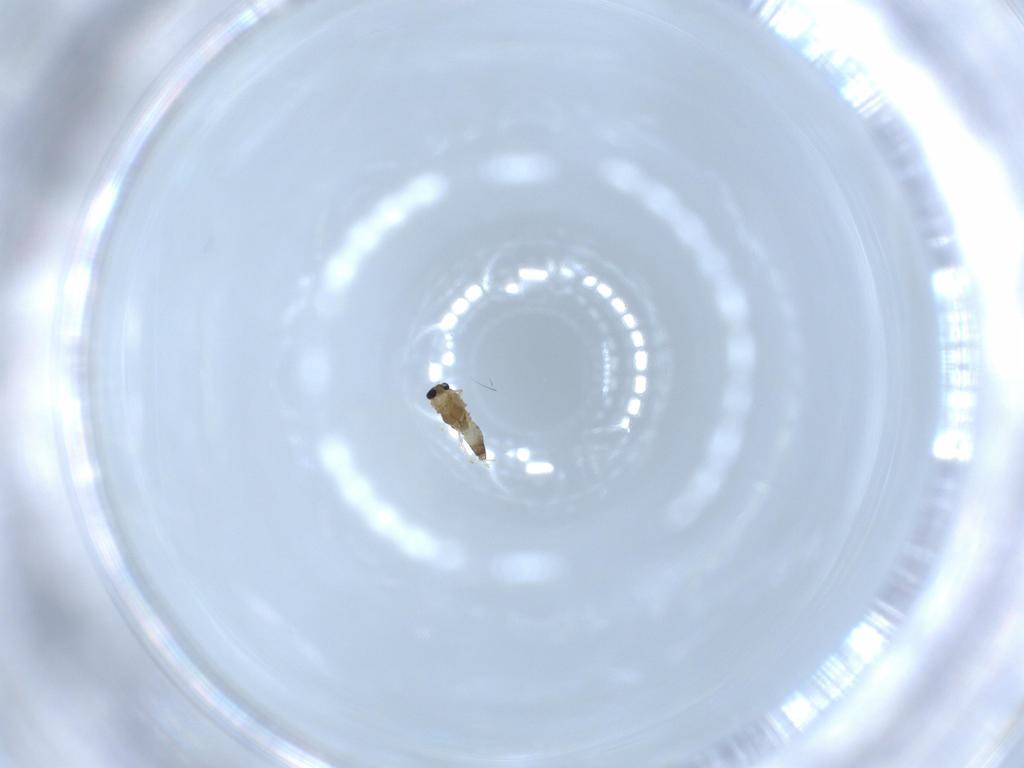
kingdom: Animalia
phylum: Arthropoda
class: Insecta
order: Diptera
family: Chironomidae
